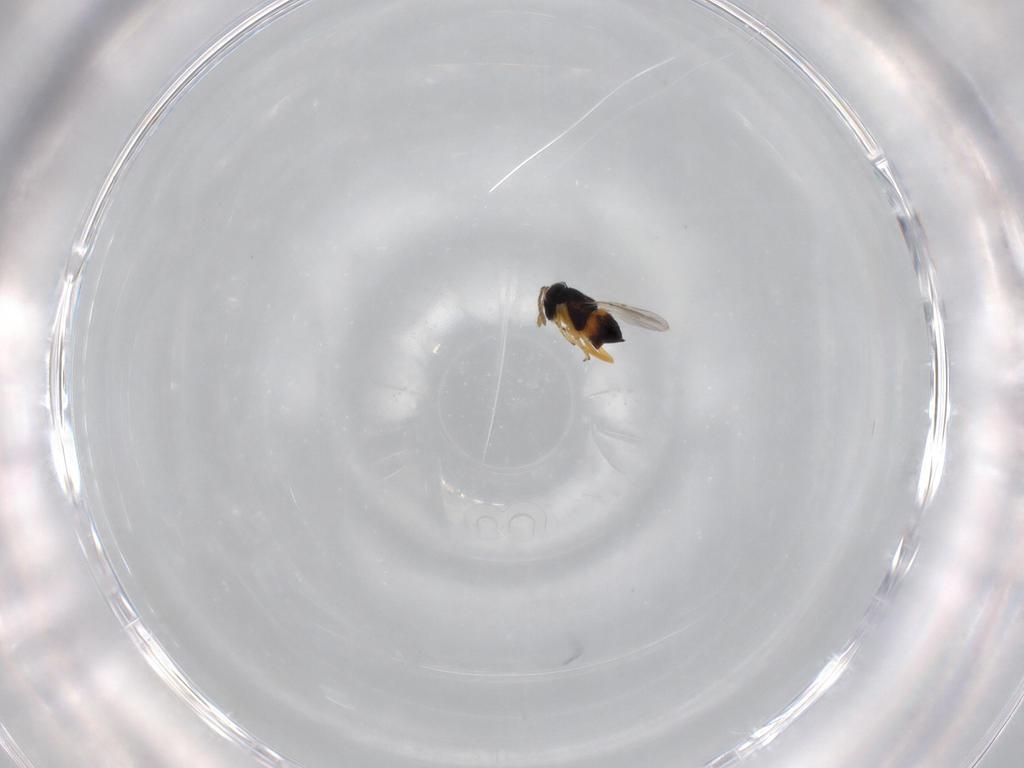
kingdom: Animalia
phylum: Arthropoda
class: Insecta
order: Hymenoptera
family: Encyrtidae
